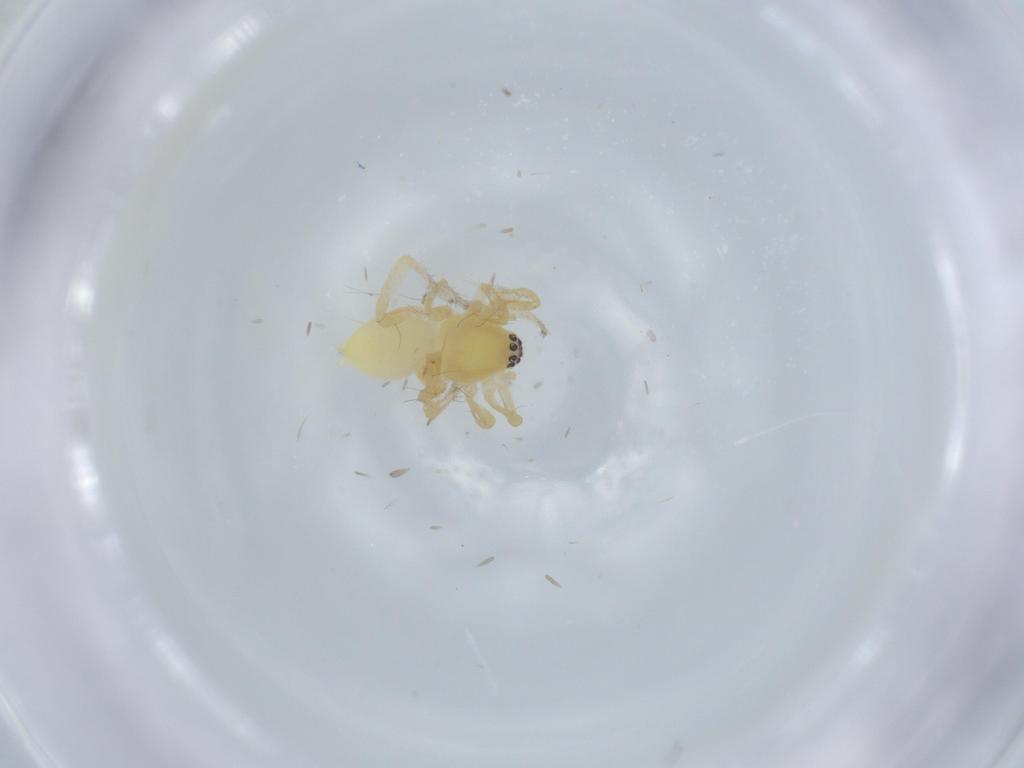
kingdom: Animalia
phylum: Arthropoda
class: Arachnida
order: Araneae
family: Anyphaenidae
